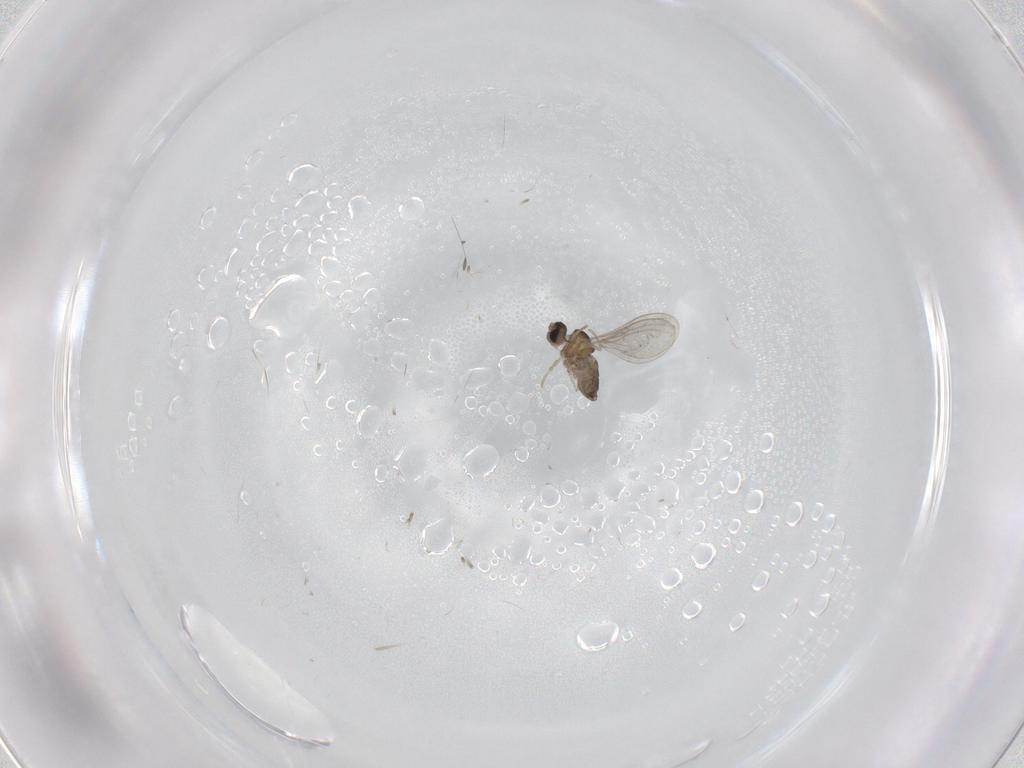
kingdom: Animalia
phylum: Arthropoda
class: Insecta
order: Diptera
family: Cecidomyiidae
